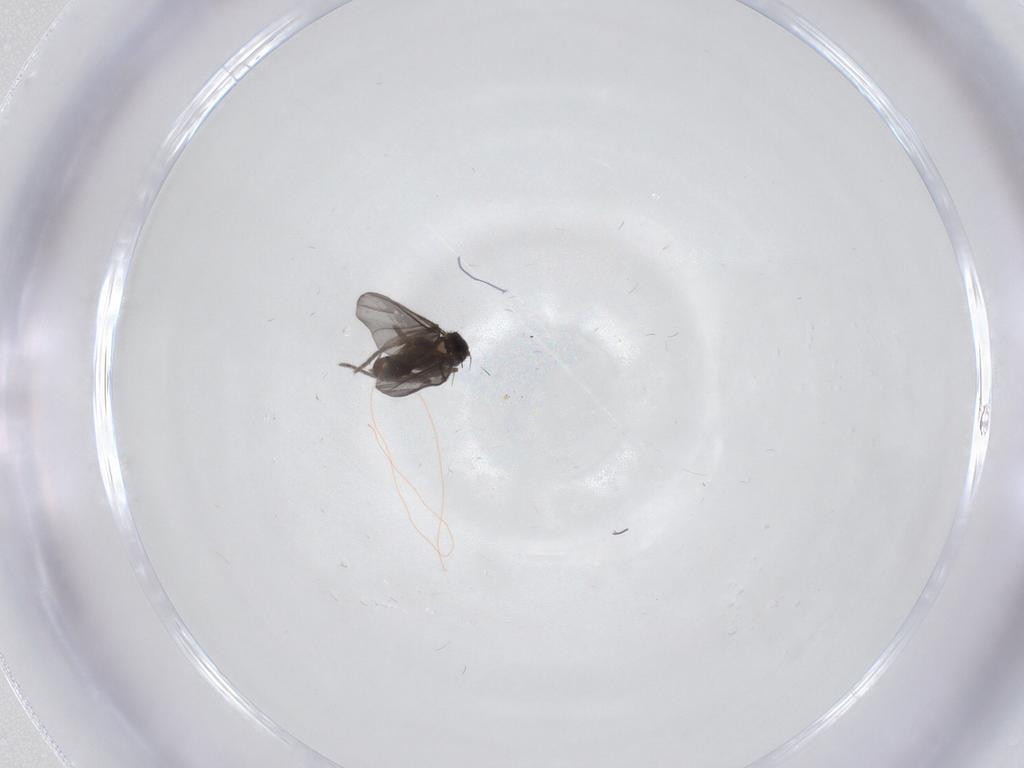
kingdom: Animalia
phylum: Arthropoda
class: Insecta
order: Diptera
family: Phoridae
